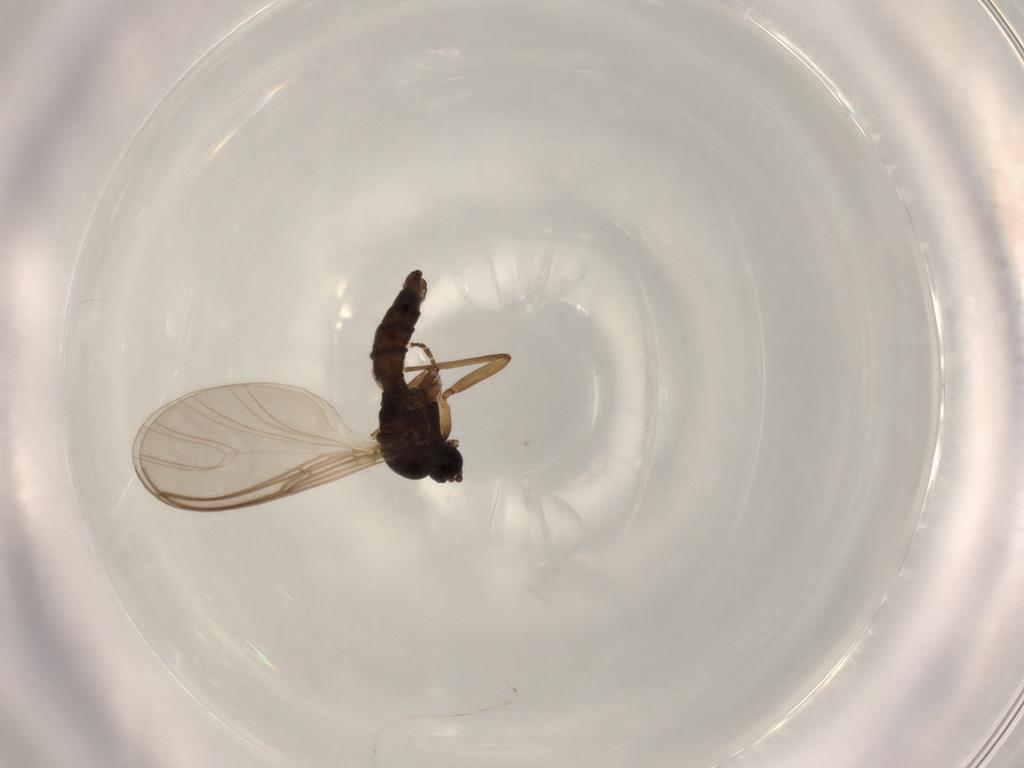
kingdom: Animalia
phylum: Arthropoda
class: Insecta
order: Diptera
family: Sciaridae
